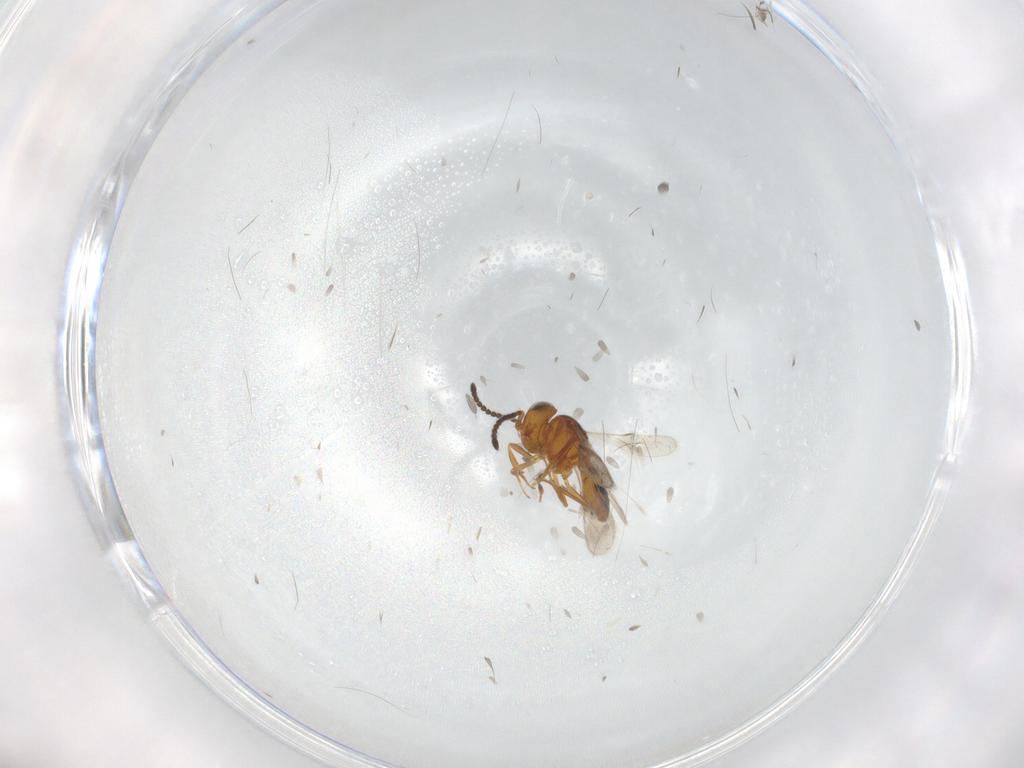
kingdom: Animalia
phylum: Arthropoda
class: Insecta
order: Hymenoptera
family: Scelionidae
